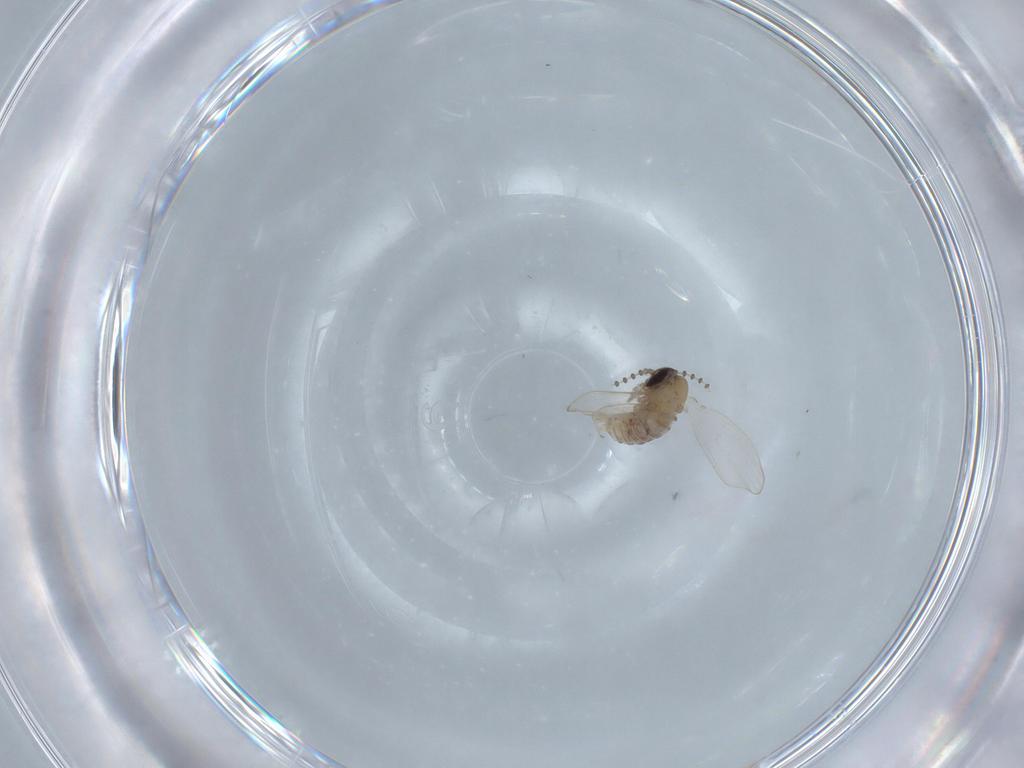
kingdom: Animalia
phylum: Arthropoda
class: Insecta
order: Diptera
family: Psychodidae
